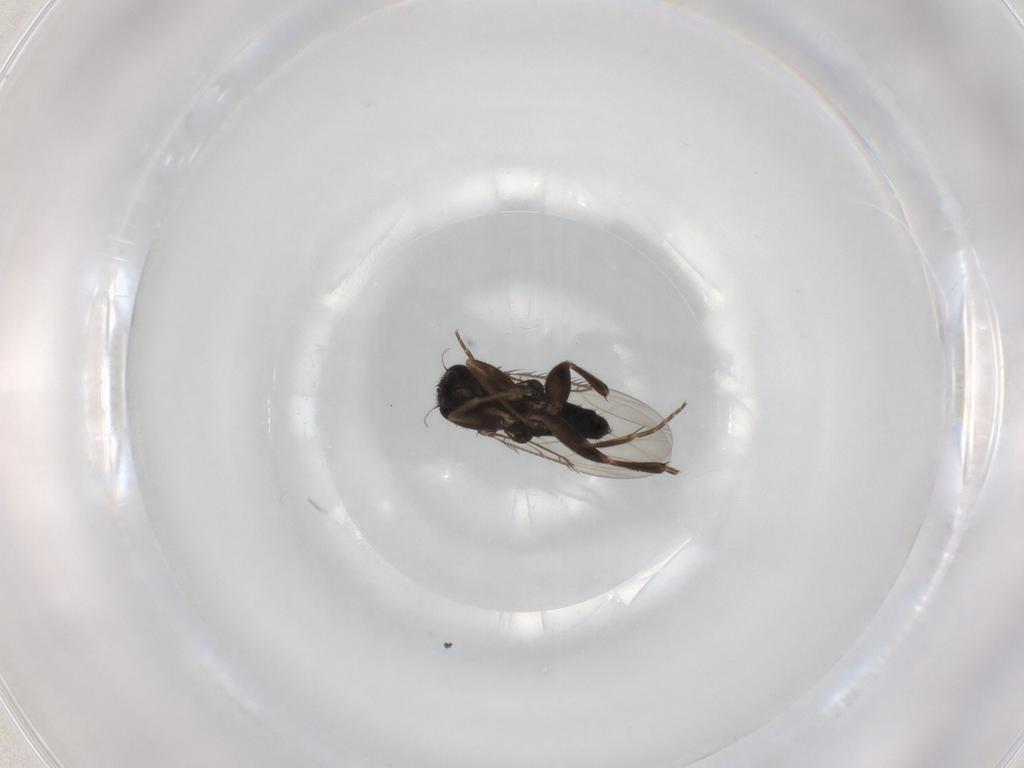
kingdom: Animalia
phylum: Arthropoda
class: Insecta
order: Diptera
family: Phoridae
